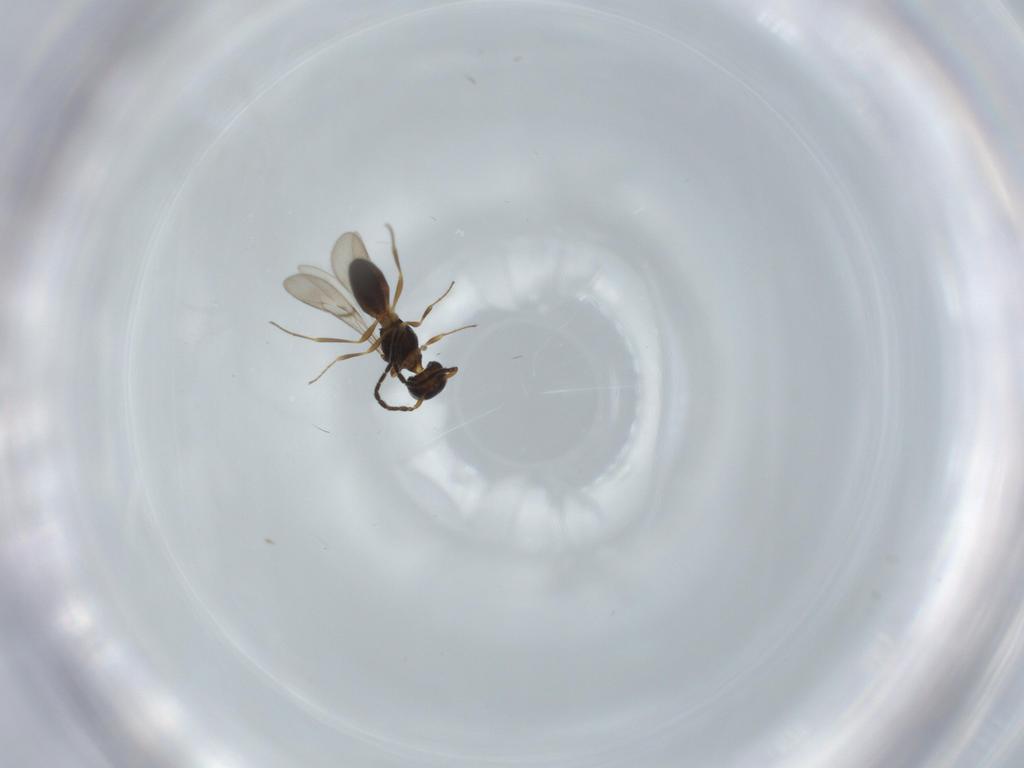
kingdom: Animalia
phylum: Arthropoda
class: Insecta
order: Hymenoptera
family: Scelionidae
